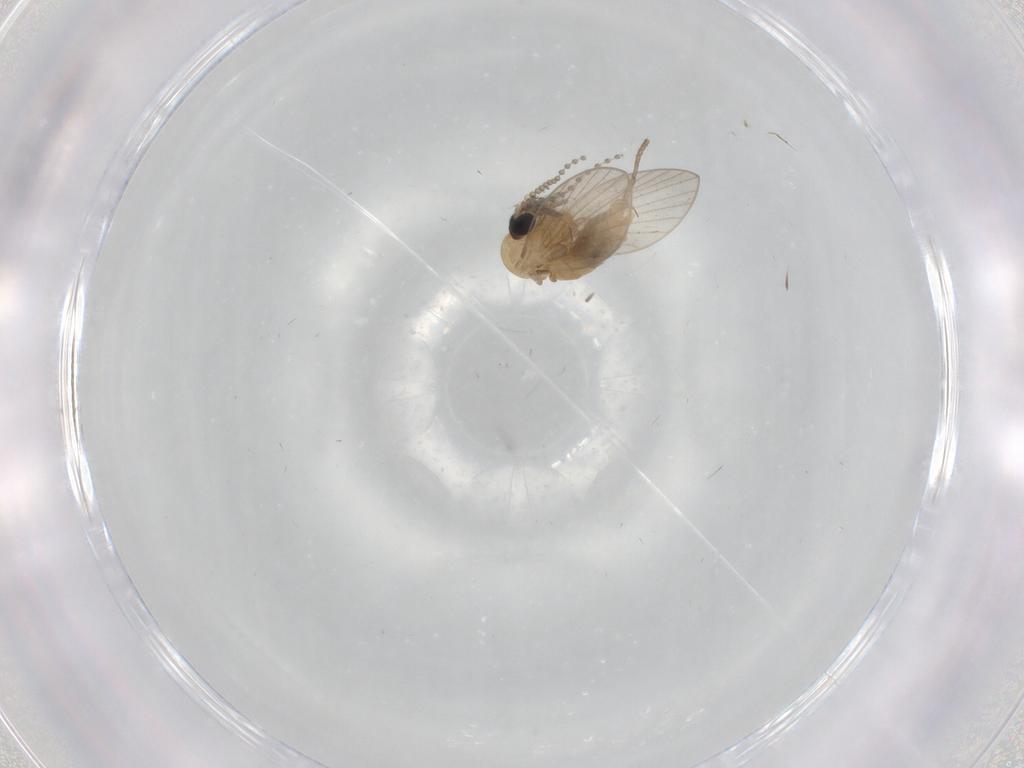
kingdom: Animalia
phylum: Arthropoda
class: Insecta
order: Diptera
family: Psychodidae
